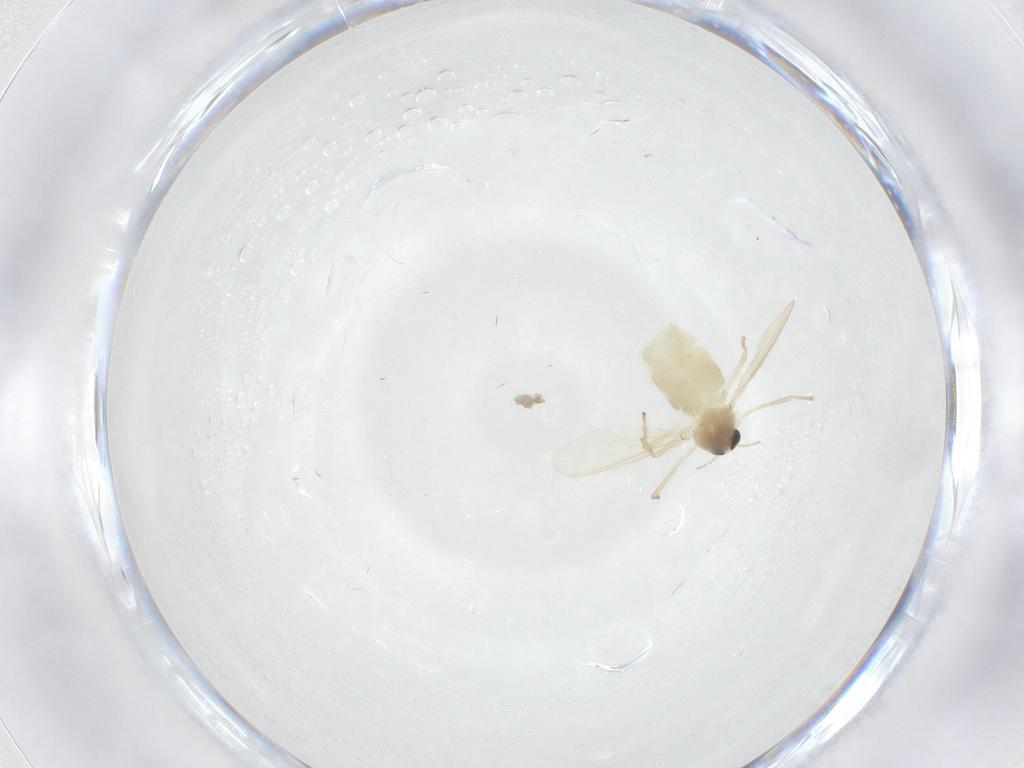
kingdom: Animalia
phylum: Arthropoda
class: Insecta
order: Diptera
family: Chironomidae
